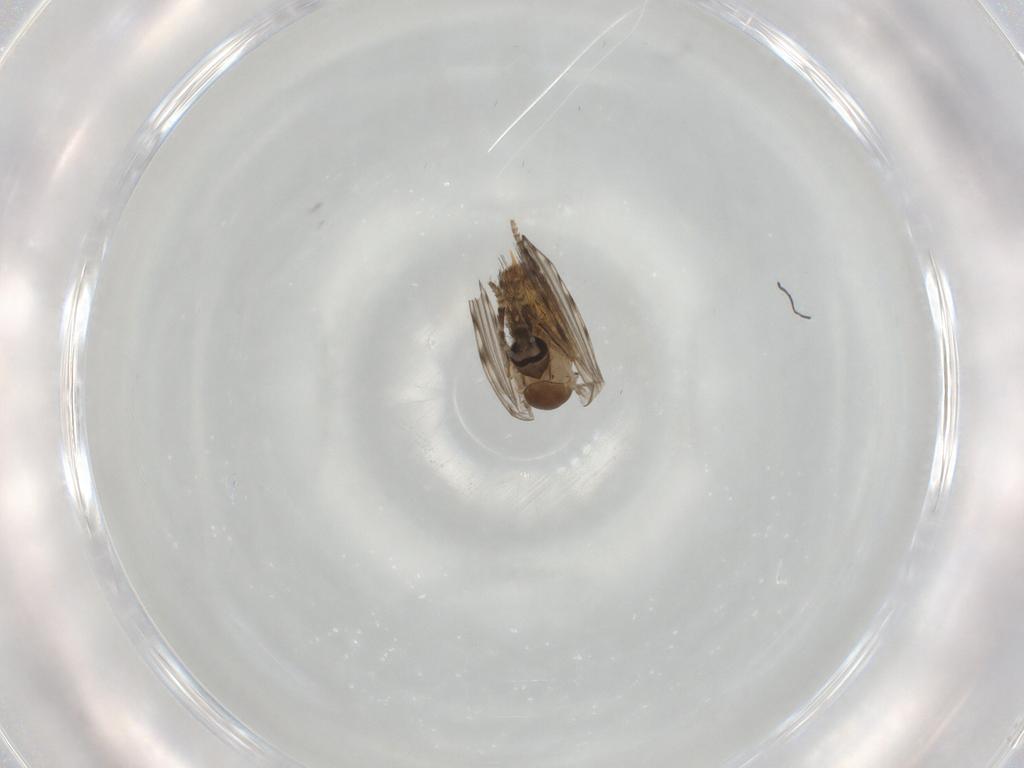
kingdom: Animalia
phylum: Arthropoda
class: Insecta
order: Diptera
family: Psychodidae
